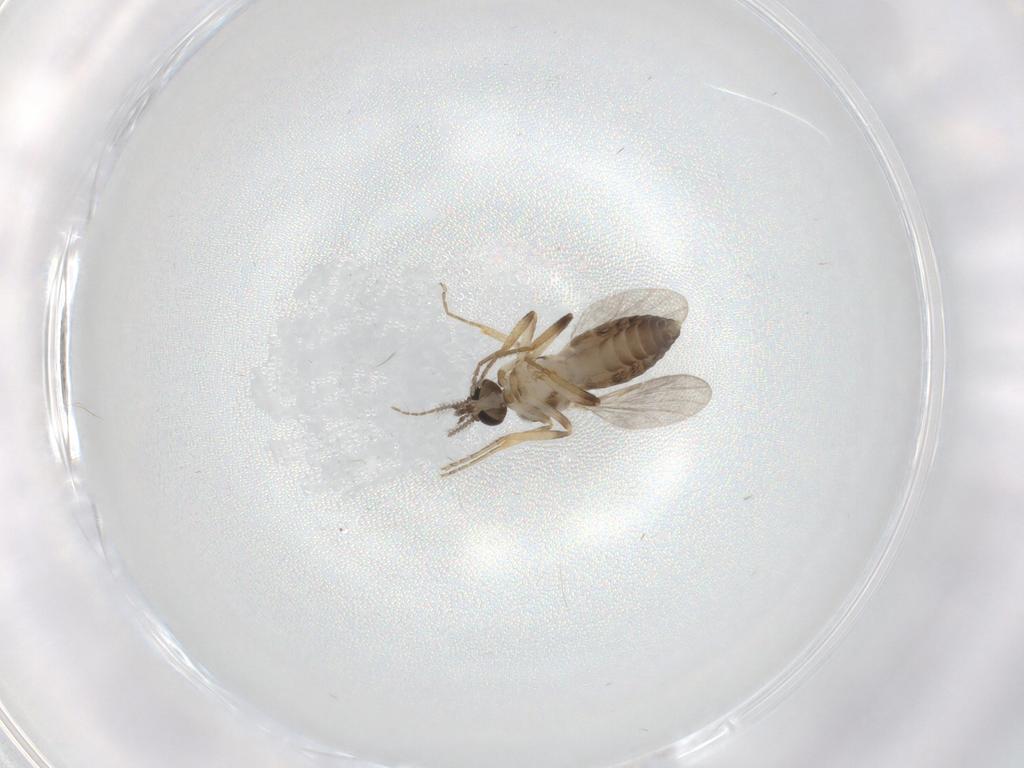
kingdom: Animalia
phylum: Arthropoda
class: Insecta
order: Diptera
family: Ceratopogonidae
